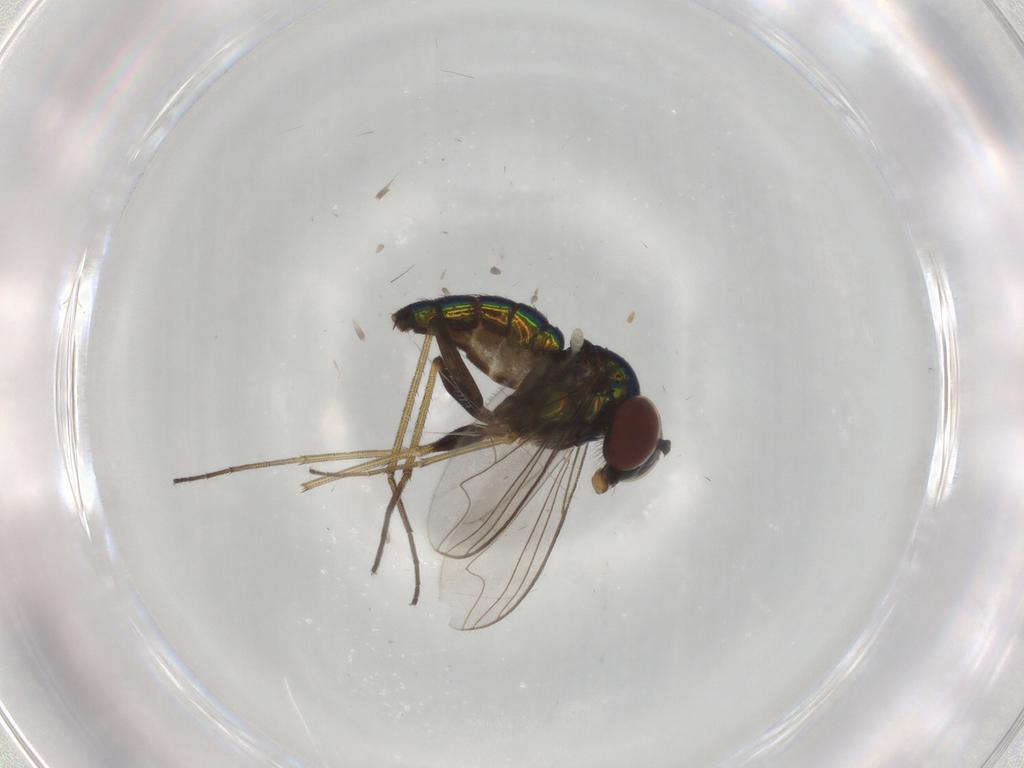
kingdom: Animalia
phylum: Arthropoda
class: Insecta
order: Diptera
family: Dolichopodidae
